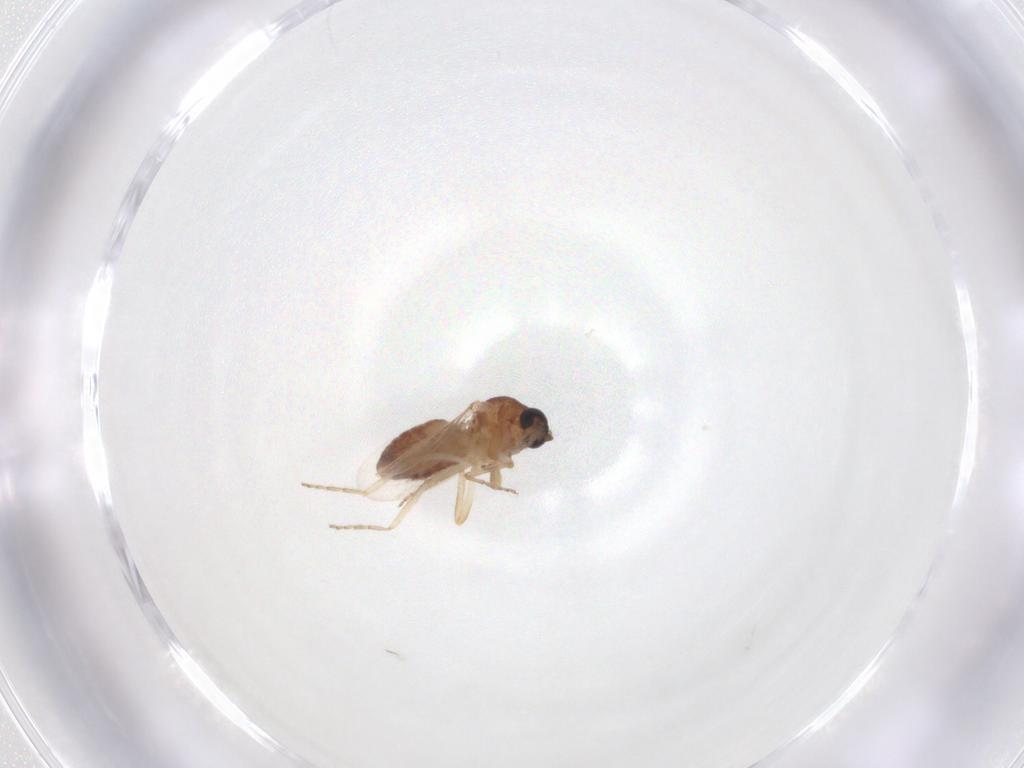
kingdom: Animalia
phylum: Arthropoda
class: Insecta
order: Diptera
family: Ceratopogonidae
